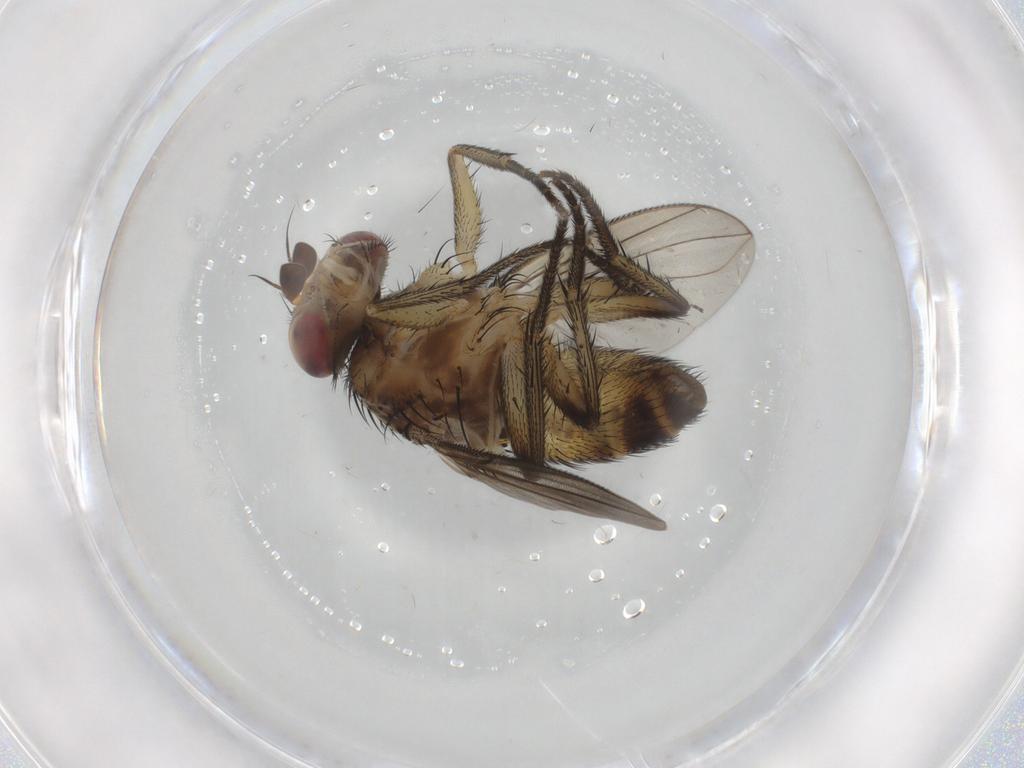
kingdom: Animalia
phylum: Arthropoda
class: Insecta
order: Diptera
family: Tachinidae
